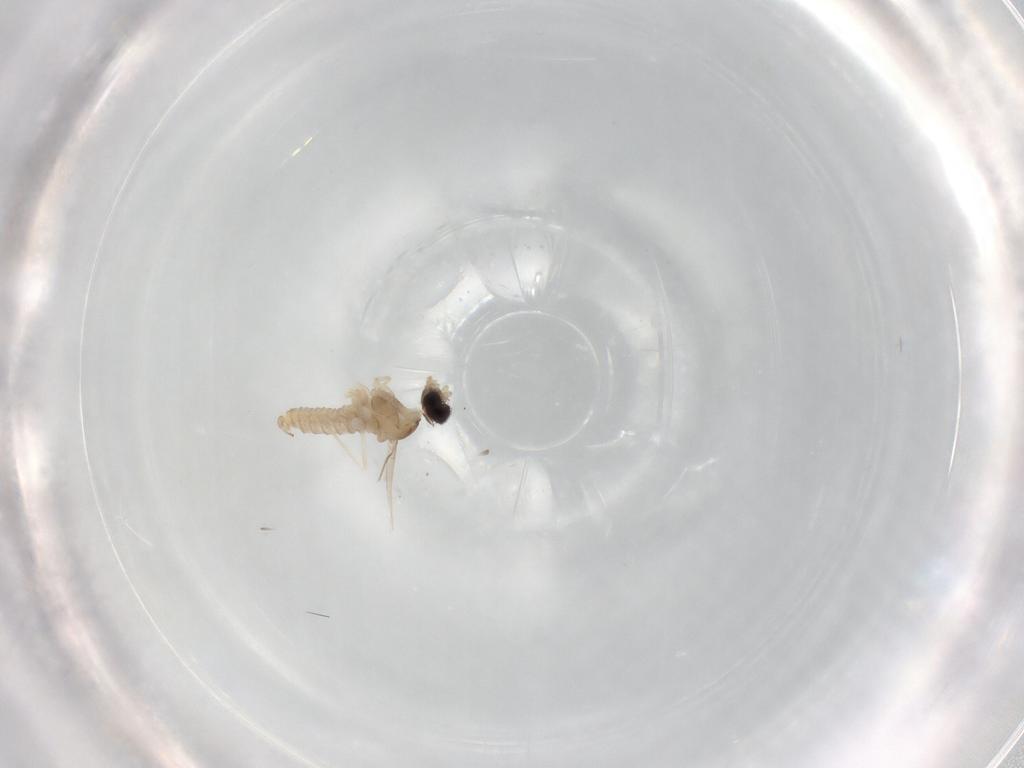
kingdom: Animalia
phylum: Arthropoda
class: Insecta
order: Diptera
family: Cecidomyiidae
